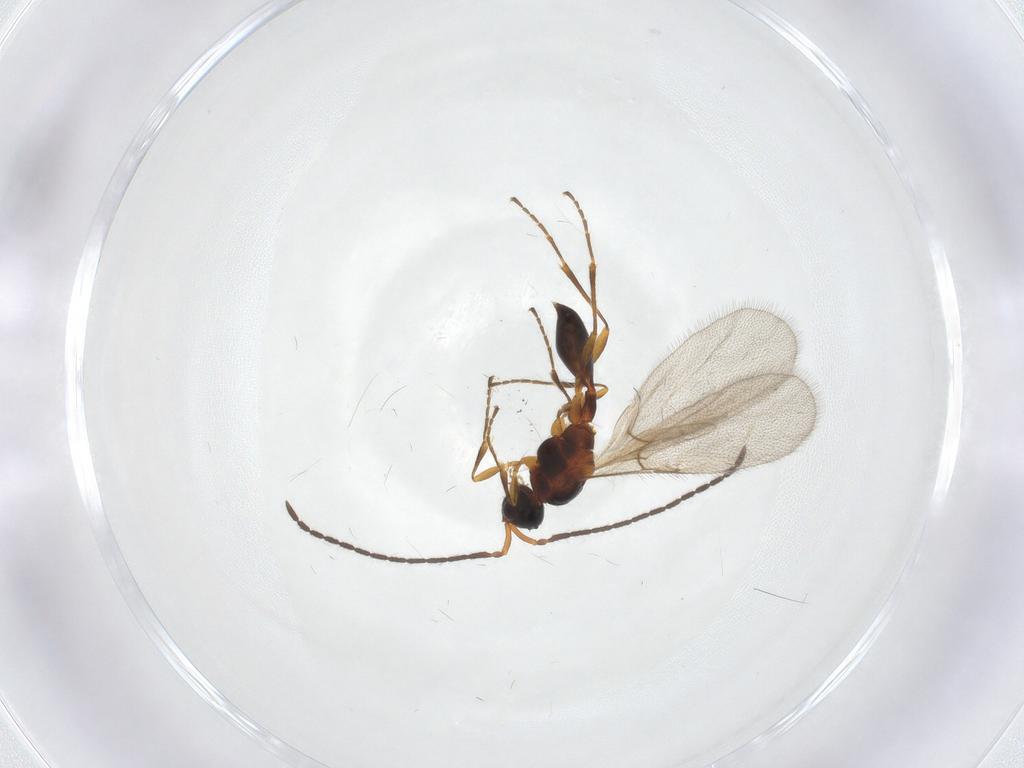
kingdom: Animalia
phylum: Arthropoda
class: Insecta
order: Hymenoptera
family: Diapriidae
